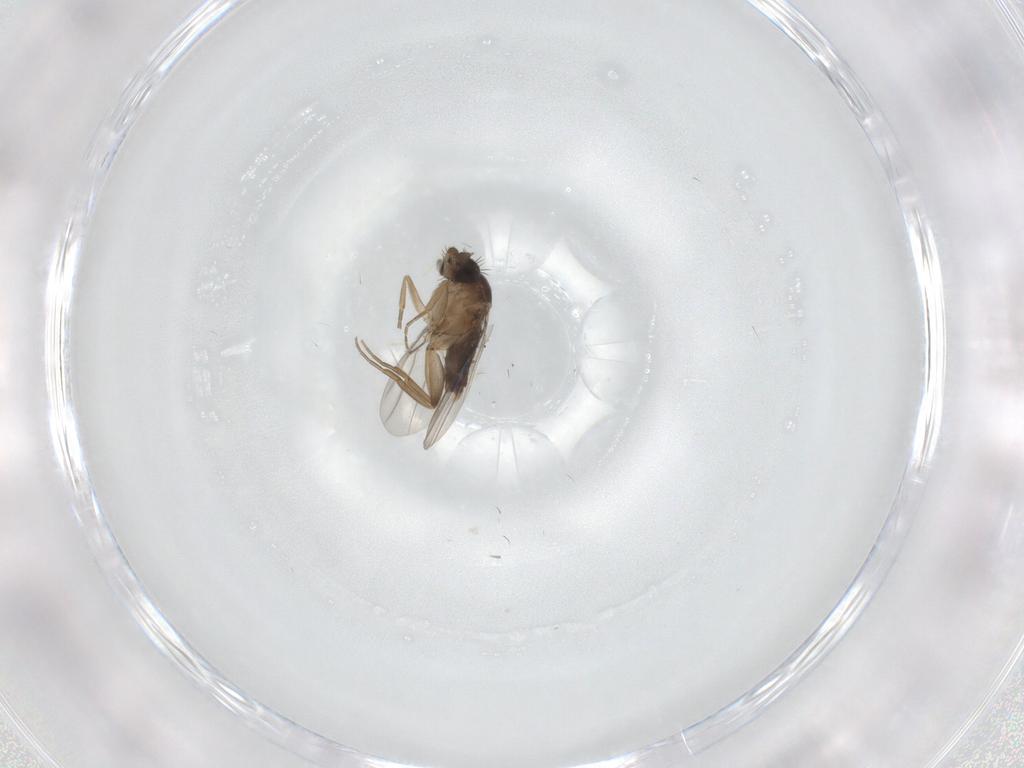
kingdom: Animalia
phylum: Arthropoda
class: Insecta
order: Diptera
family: Phoridae
